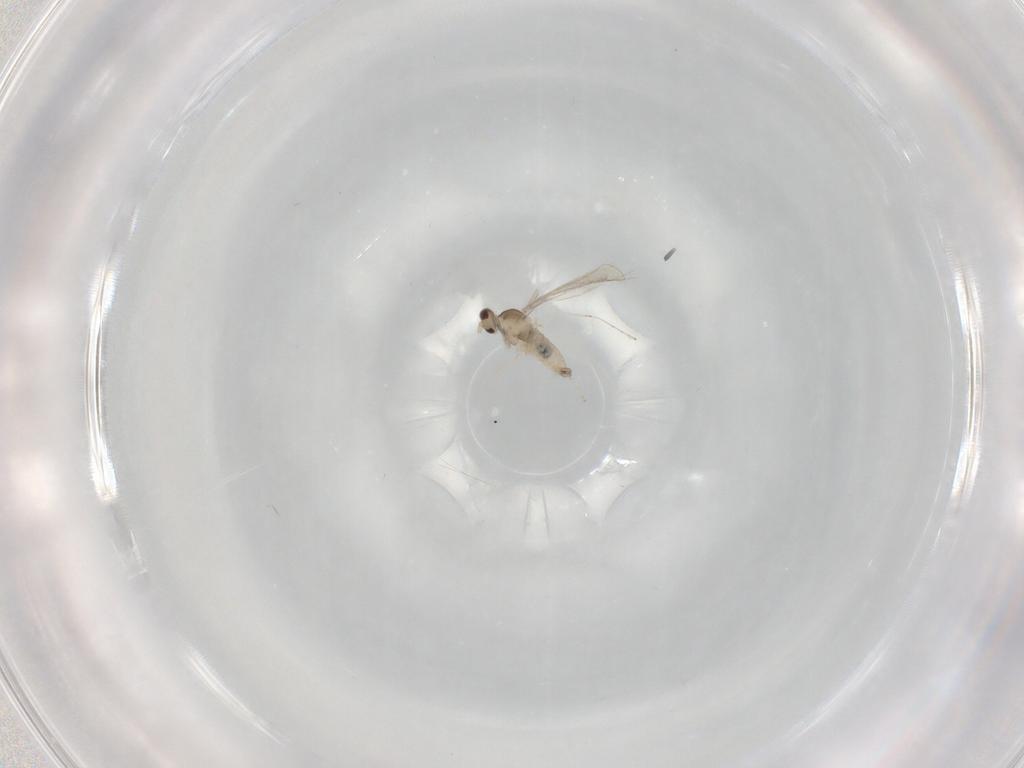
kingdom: Animalia
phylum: Arthropoda
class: Insecta
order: Diptera
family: Cecidomyiidae
